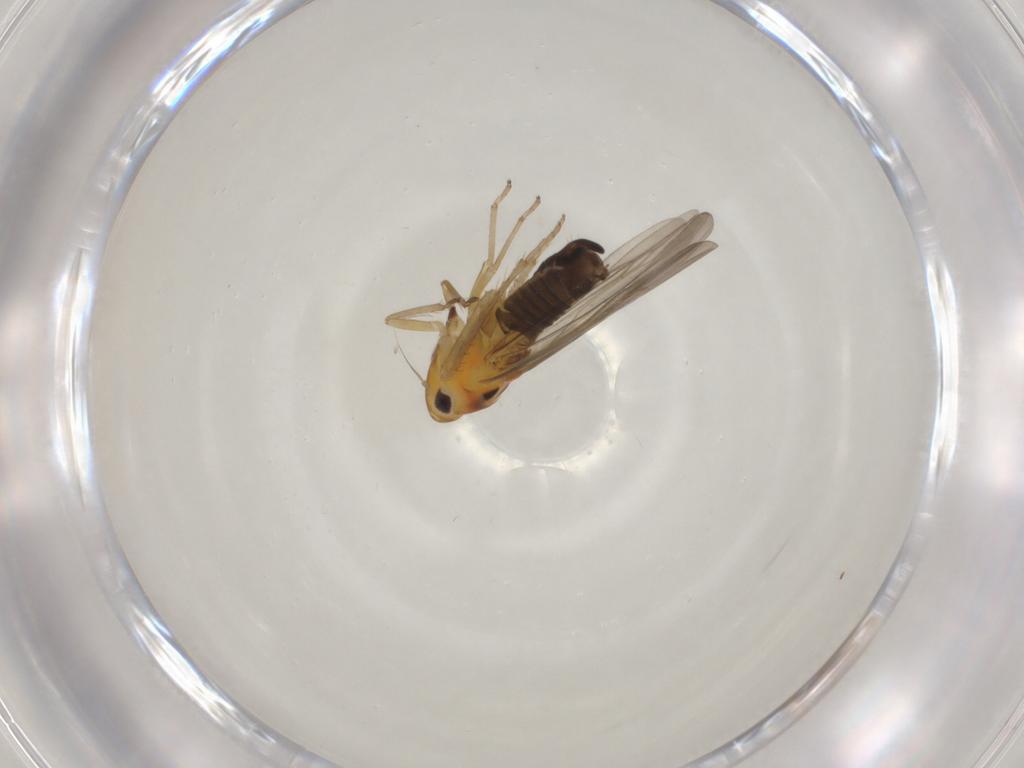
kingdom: Animalia
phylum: Arthropoda
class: Insecta
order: Hemiptera
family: Cicadellidae
